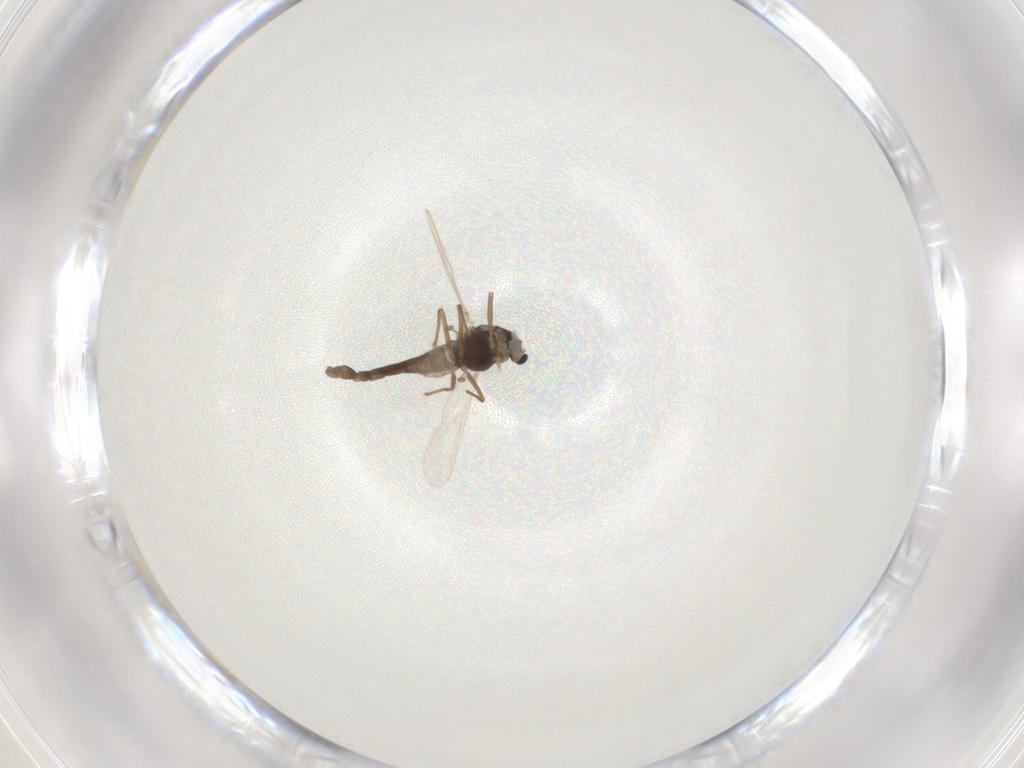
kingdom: Animalia
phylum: Arthropoda
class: Insecta
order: Diptera
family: Chironomidae
